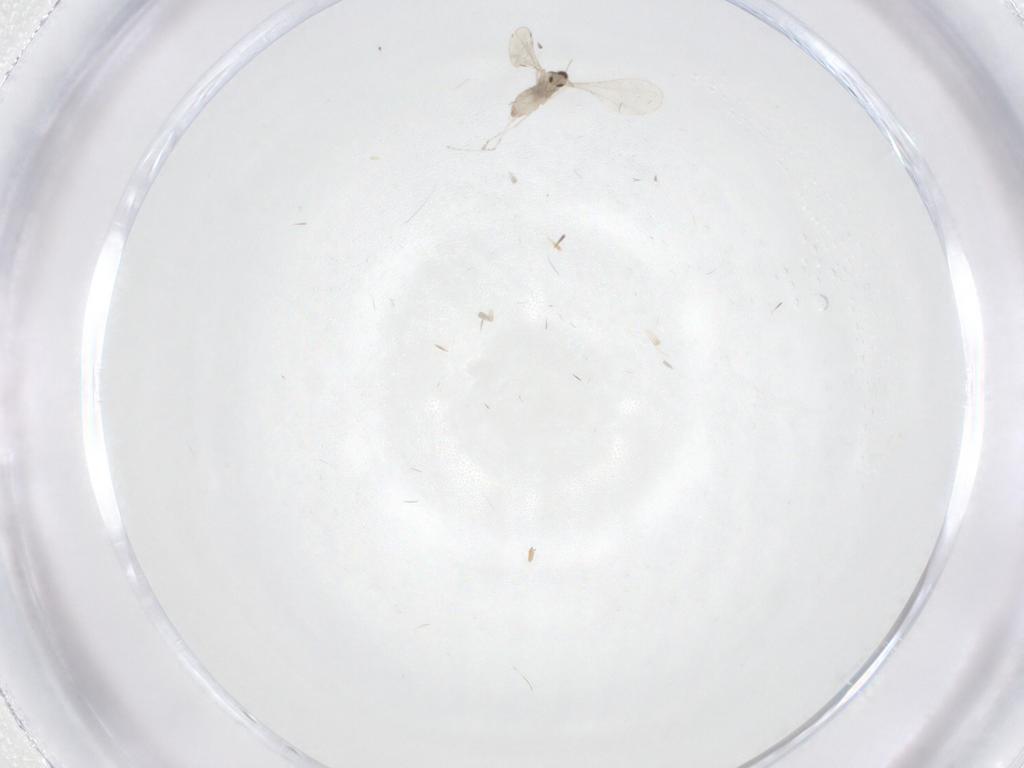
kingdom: Animalia
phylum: Arthropoda
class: Insecta
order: Diptera
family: Cecidomyiidae
